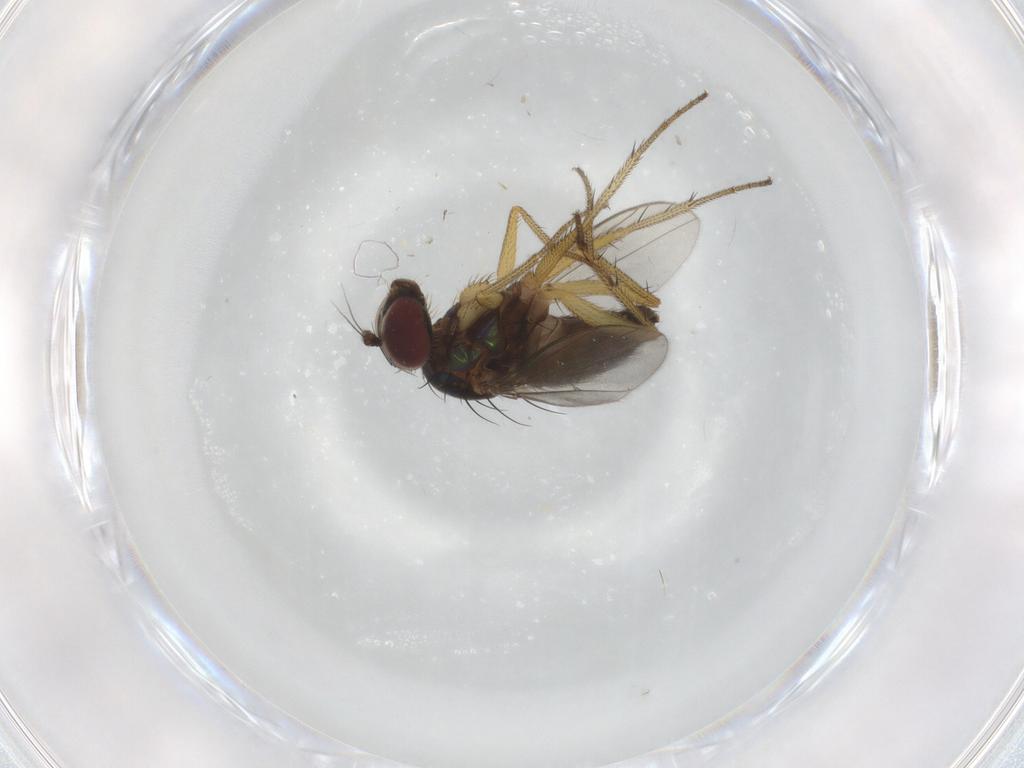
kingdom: Animalia
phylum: Arthropoda
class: Insecta
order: Diptera
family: Dolichopodidae
